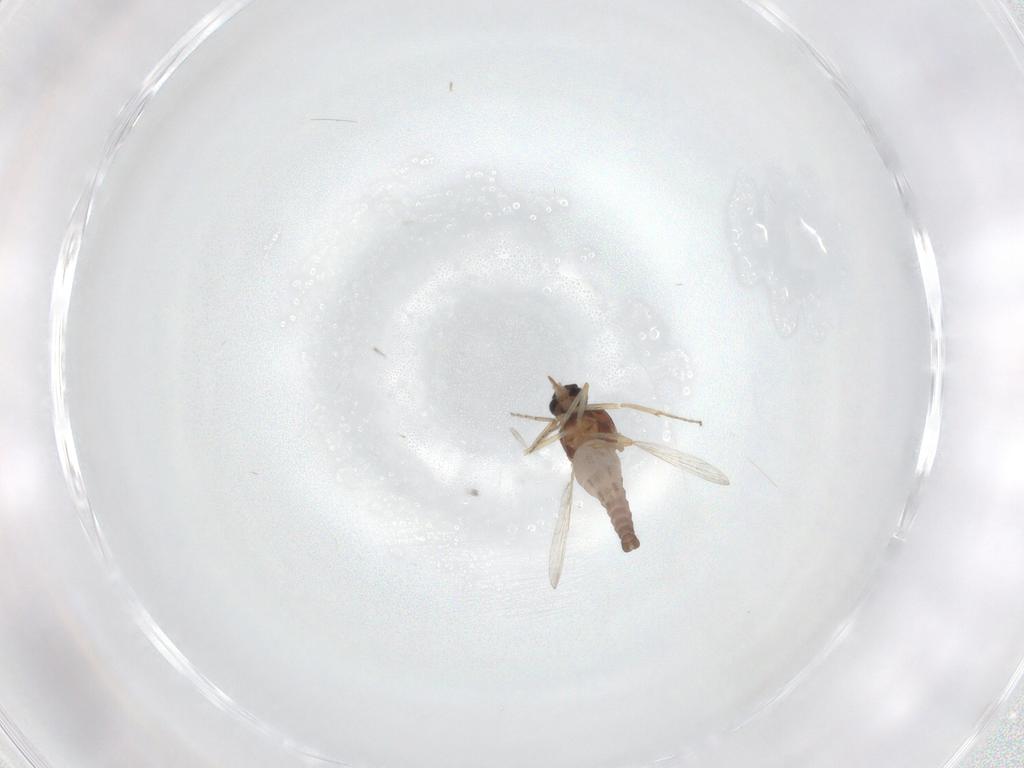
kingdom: Animalia
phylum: Arthropoda
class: Insecta
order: Diptera
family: Ceratopogonidae
